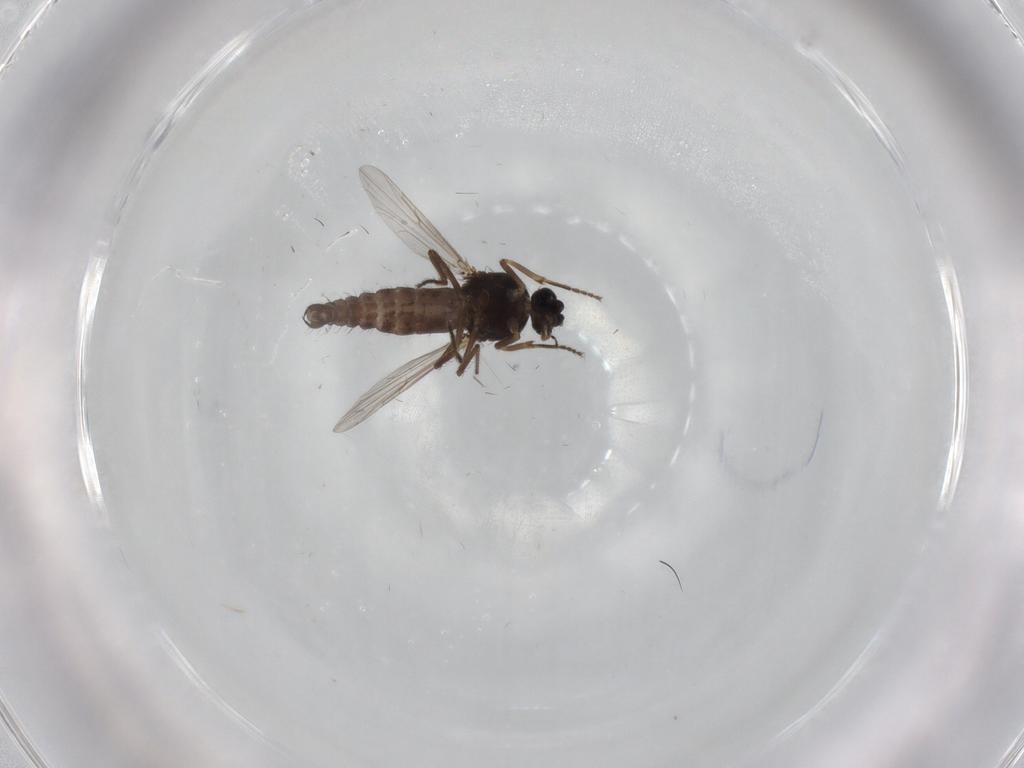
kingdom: Animalia
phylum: Arthropoda
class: Insecta
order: Diptera
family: Ceratopogonidae
